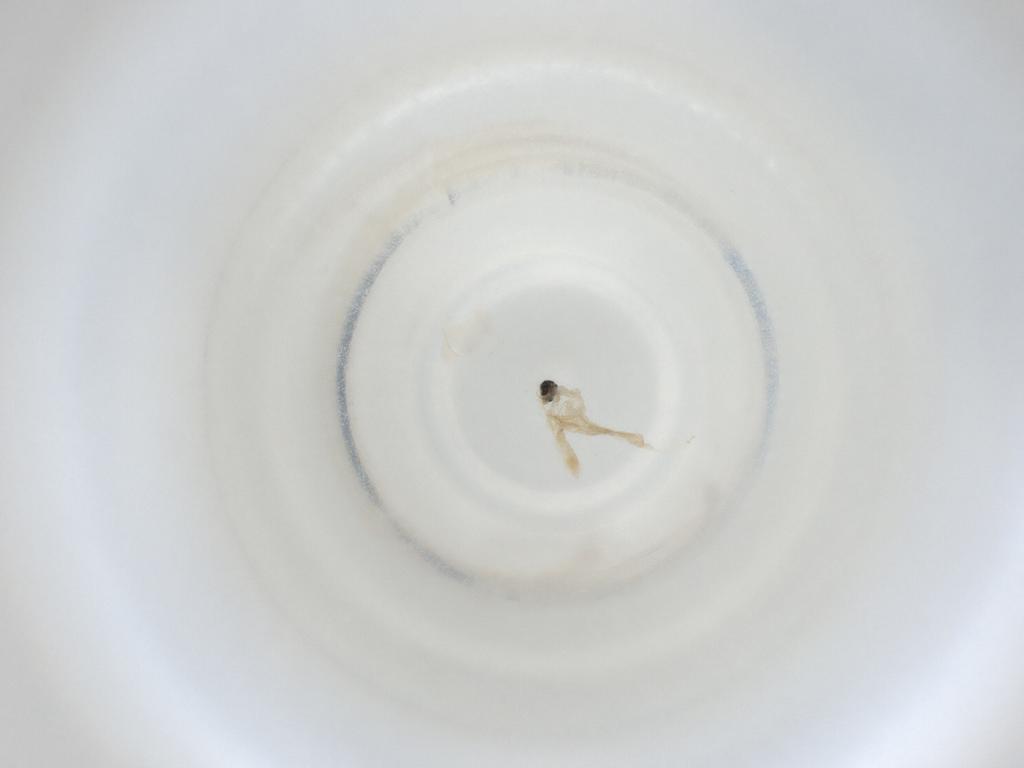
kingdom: Animalia
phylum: Arthropoda
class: Insecta
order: Diptera
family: Cecidomyiidae
